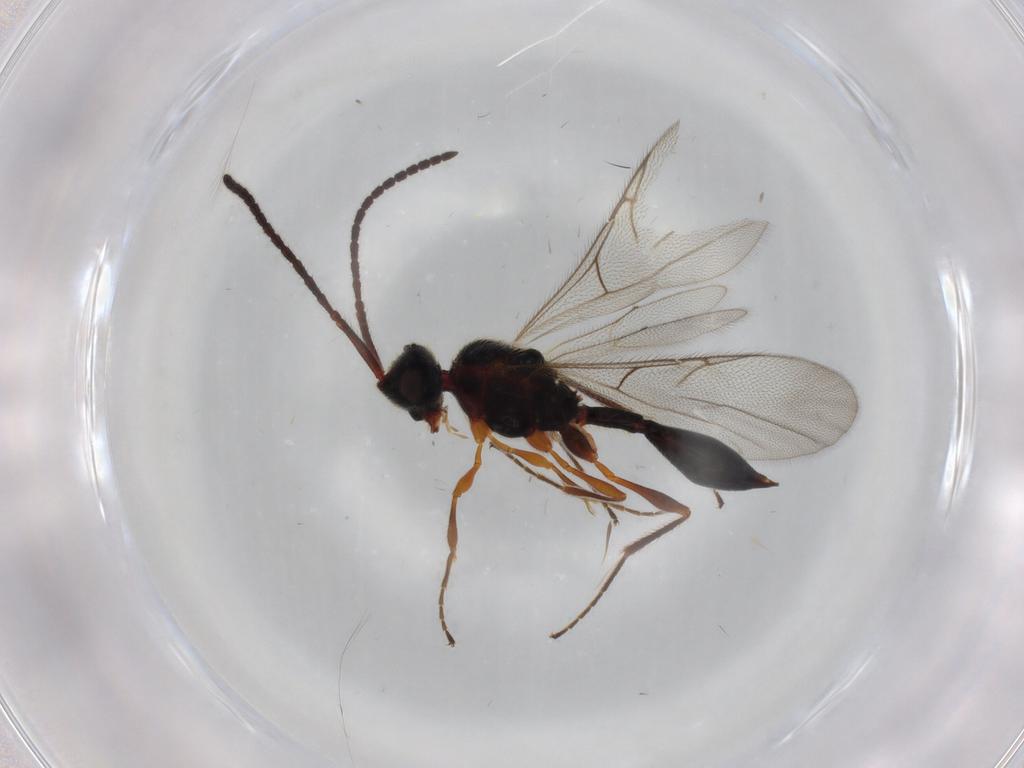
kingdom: Animalia
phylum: Arthropoda
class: Insecta
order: Hymenoptera
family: Diapriidae
